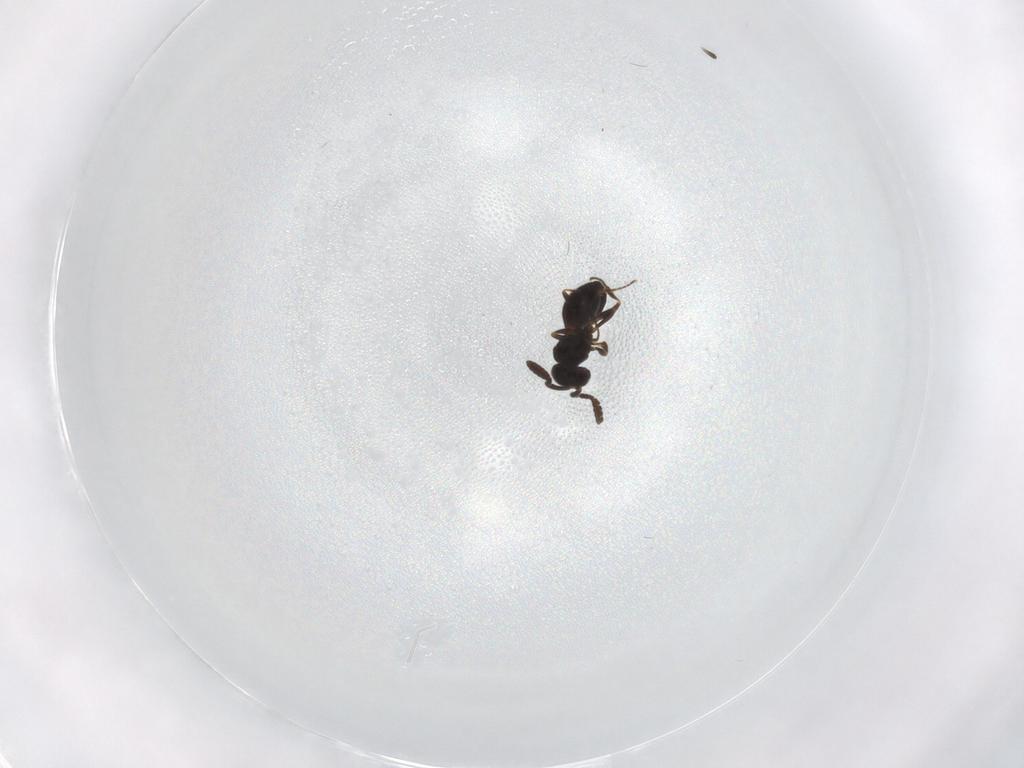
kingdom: Animalia
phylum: Arthropoda
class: Insecta
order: Hymenoptera
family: Scelionidae
